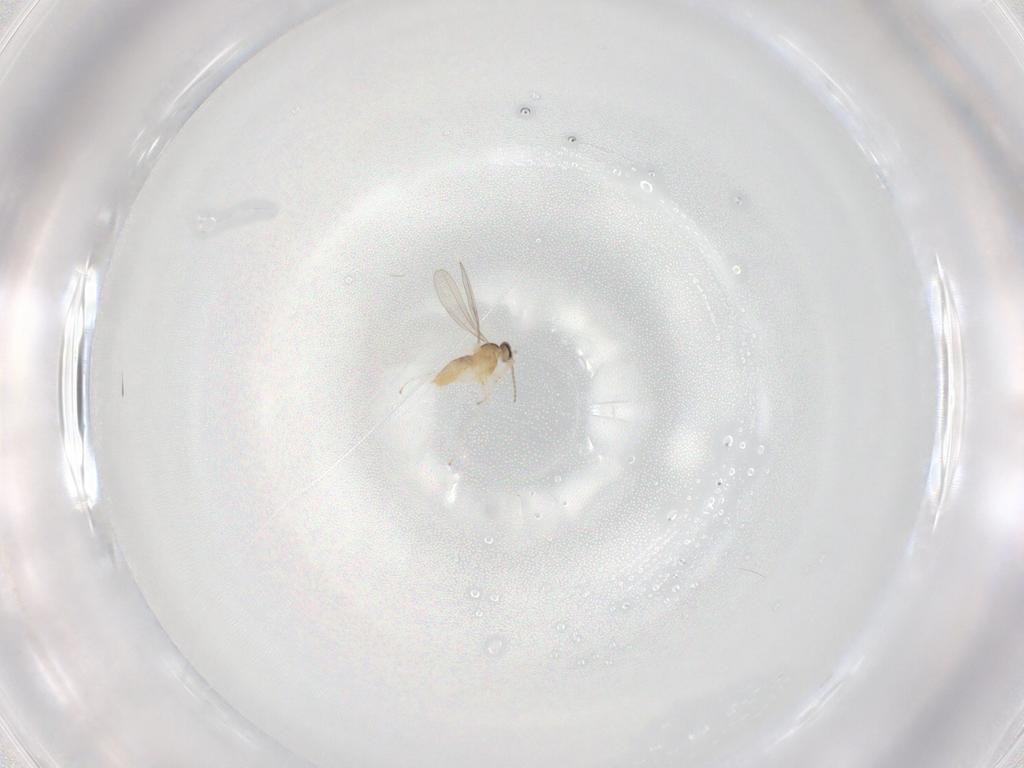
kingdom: Animalia
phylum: Arthropoda
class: Insecta
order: Diptera
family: Cecidomyiidae
